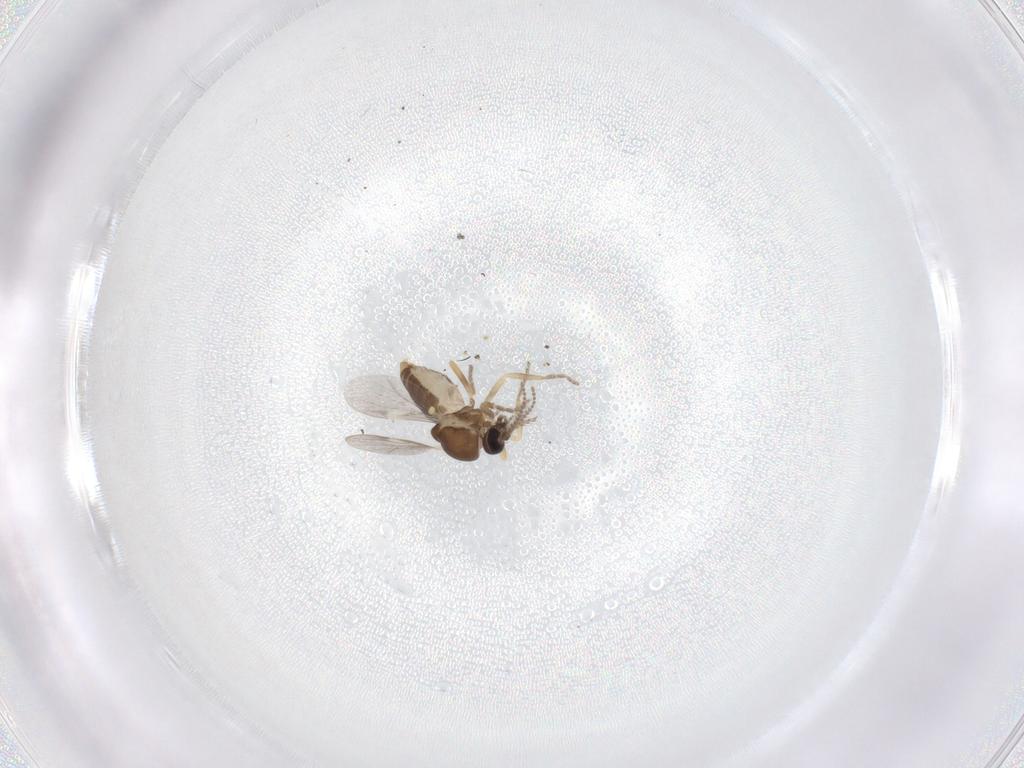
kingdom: Animalia
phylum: Arthropoda
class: Insecta
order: Diptera
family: Ceratopogonidae
